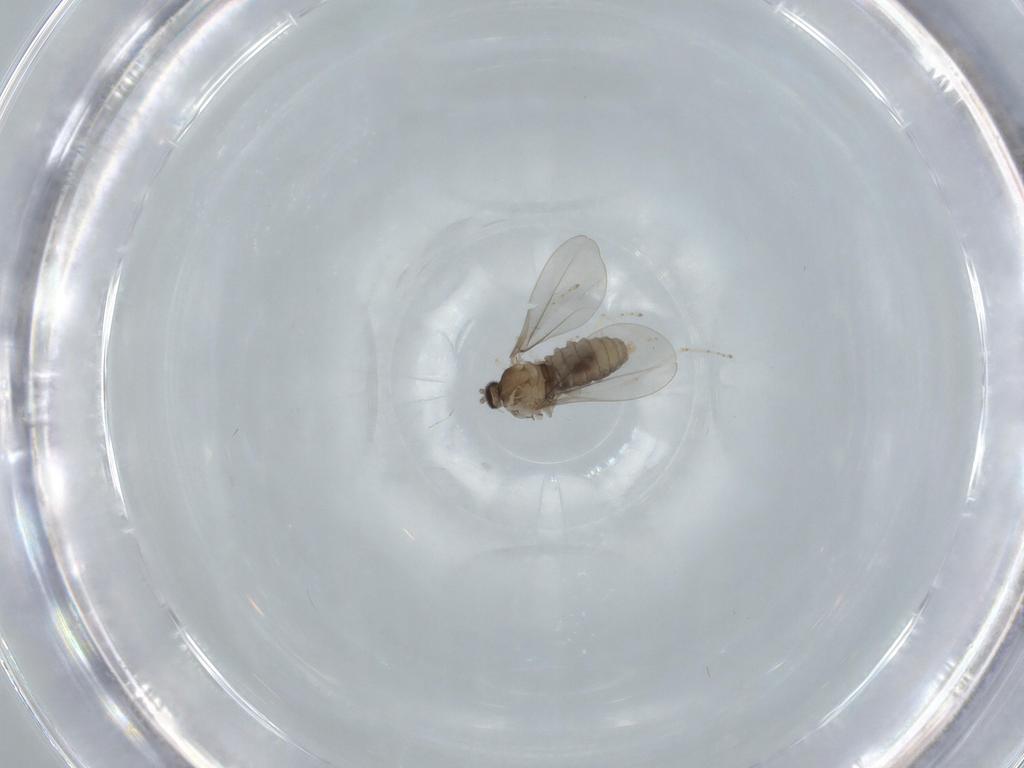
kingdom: Animalia
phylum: Arthropoda
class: Insecta
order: Diptera
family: Cecidomyiidae
